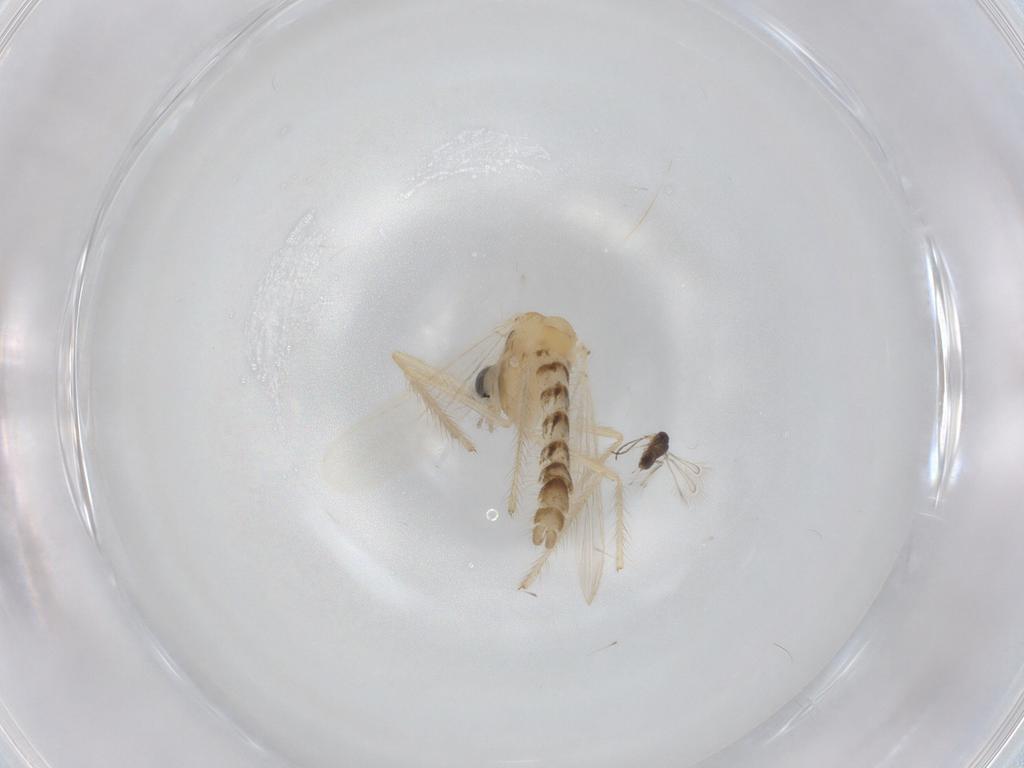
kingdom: Animalia
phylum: Arthropoda
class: Insecta
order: Diptera
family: Chironomidae
